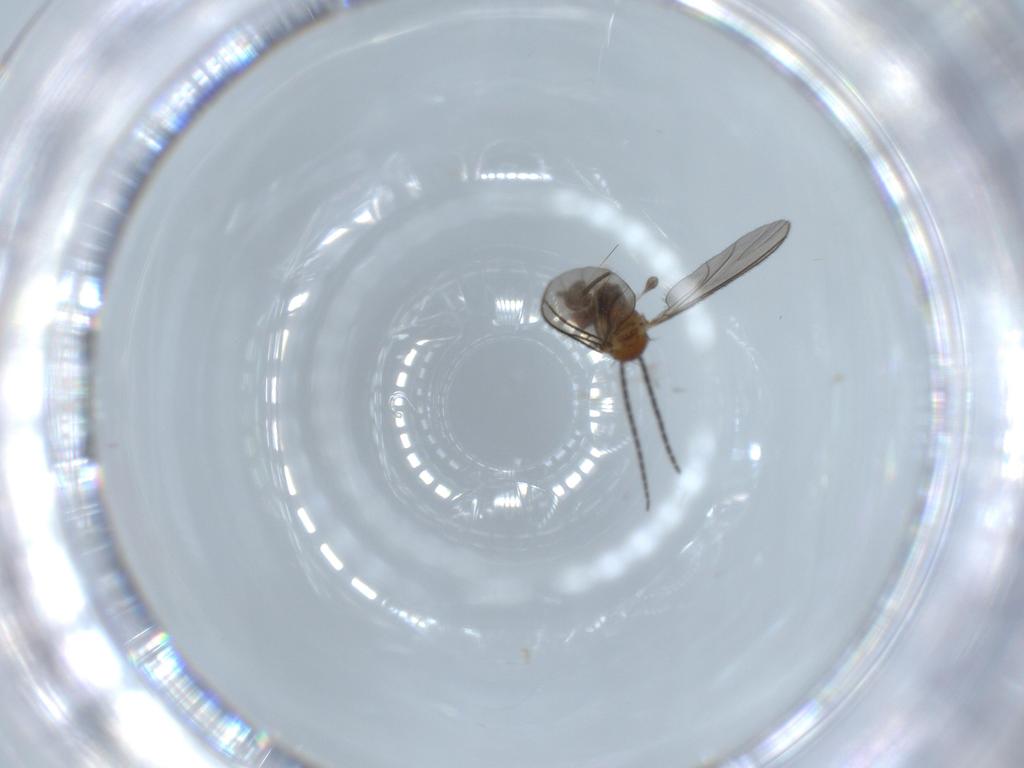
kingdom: Animalia
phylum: Arthropoda
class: Insecta
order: Diptera
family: Sciaridae
